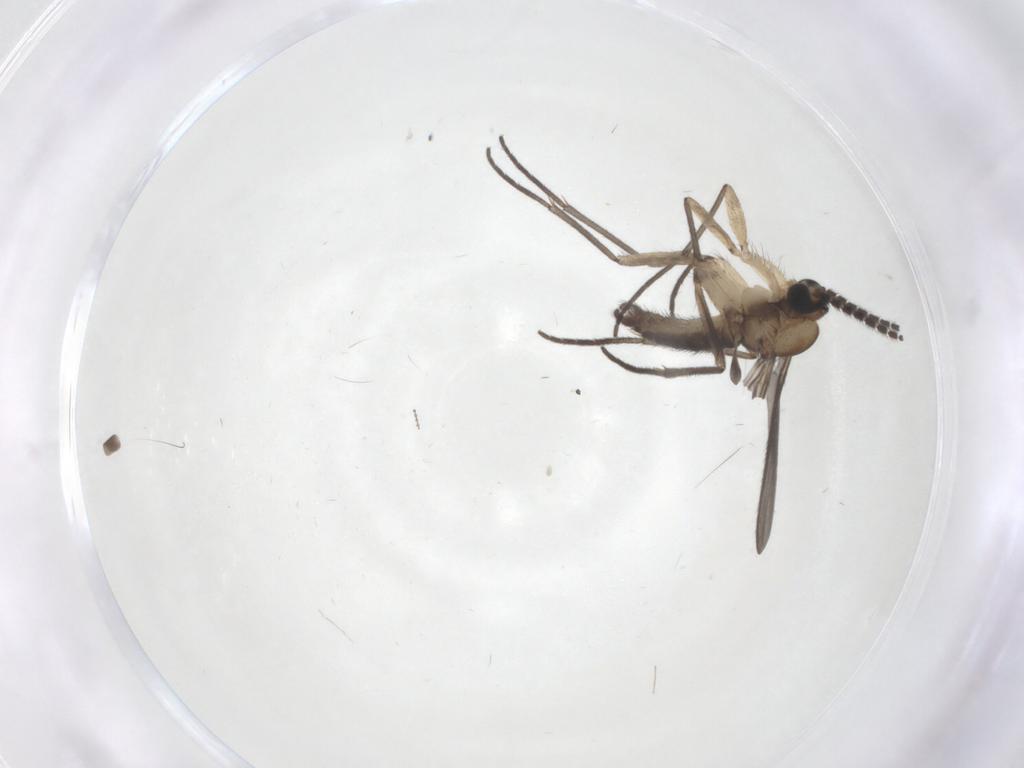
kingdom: Animalia
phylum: Arthropoda
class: Insecta
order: Diptera
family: Sciaridae
